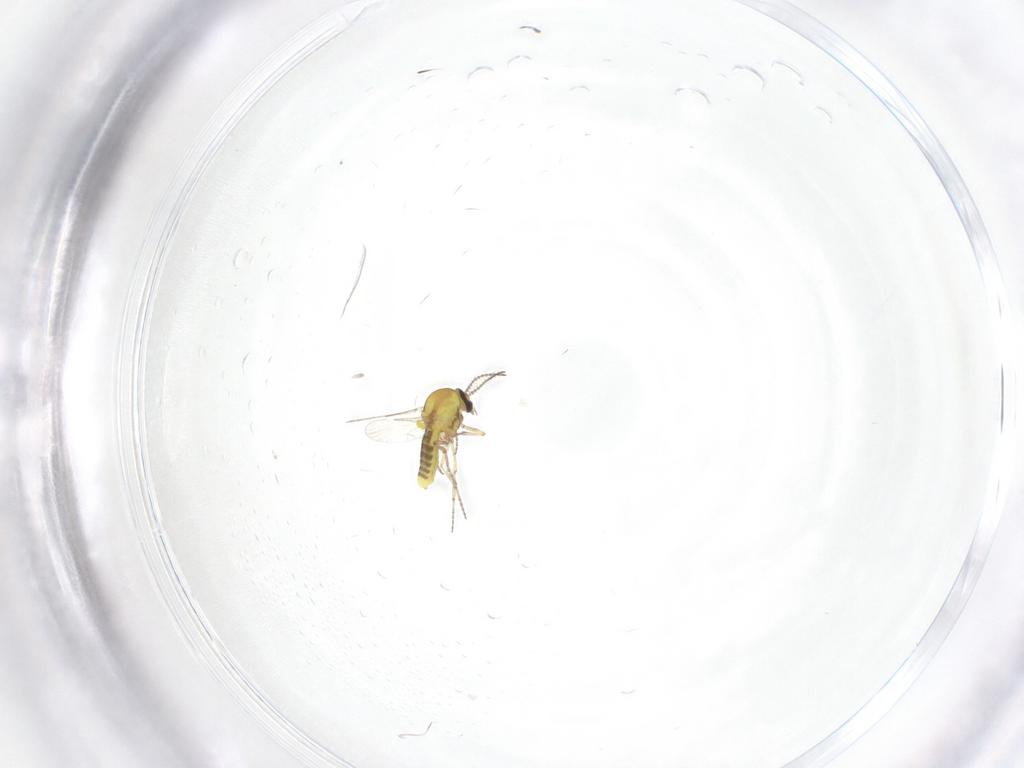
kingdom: Animalia
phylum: Arthropoda
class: Insecta
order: Diptera
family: Ceratopogonidae
